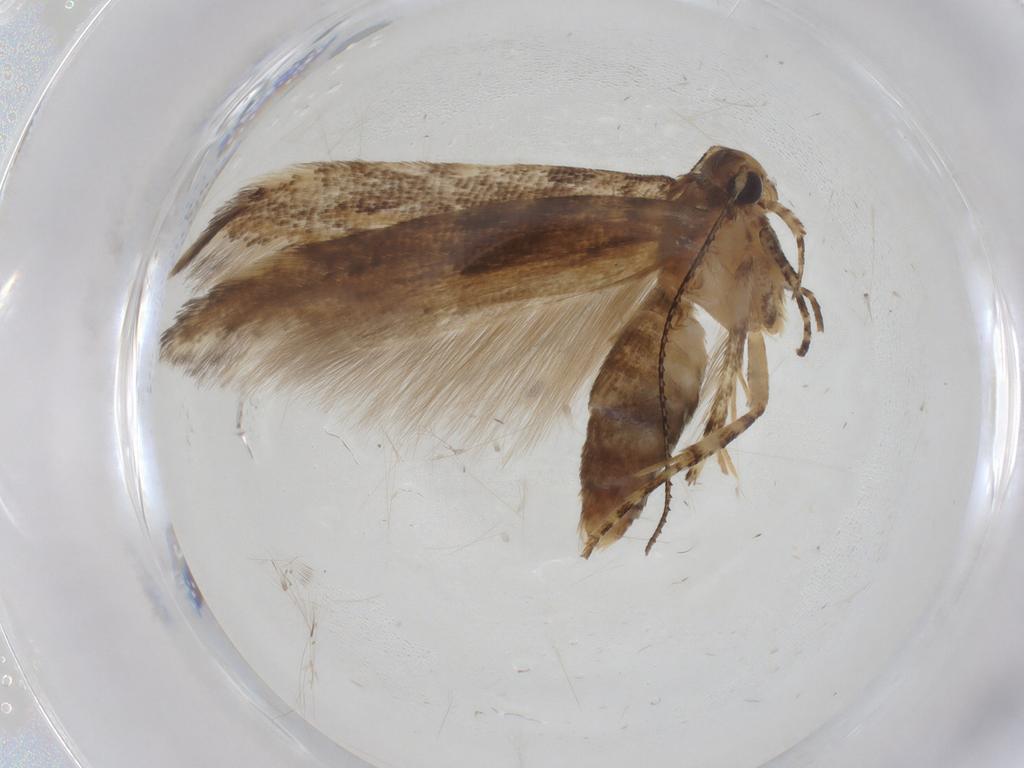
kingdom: Animalia
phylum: Arthropoda
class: Insecta
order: Lepidoptera
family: Gelechiidae
